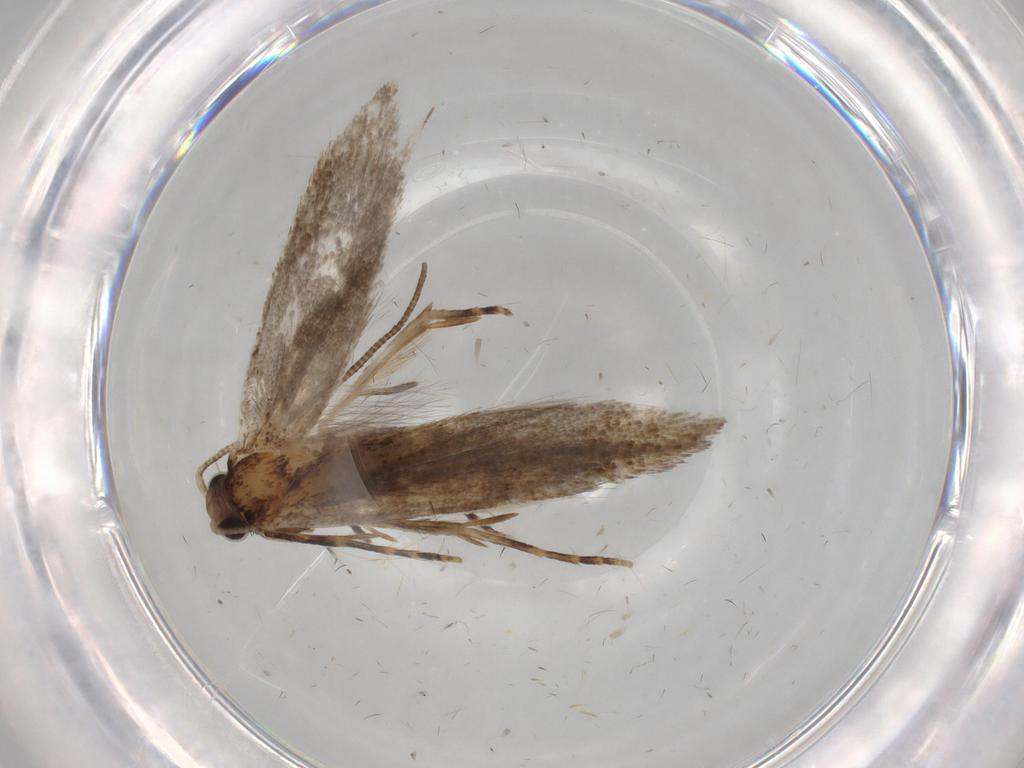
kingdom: Animalia
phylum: Arthropoda
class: Insecta
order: Lepidoptera
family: Tineidae
